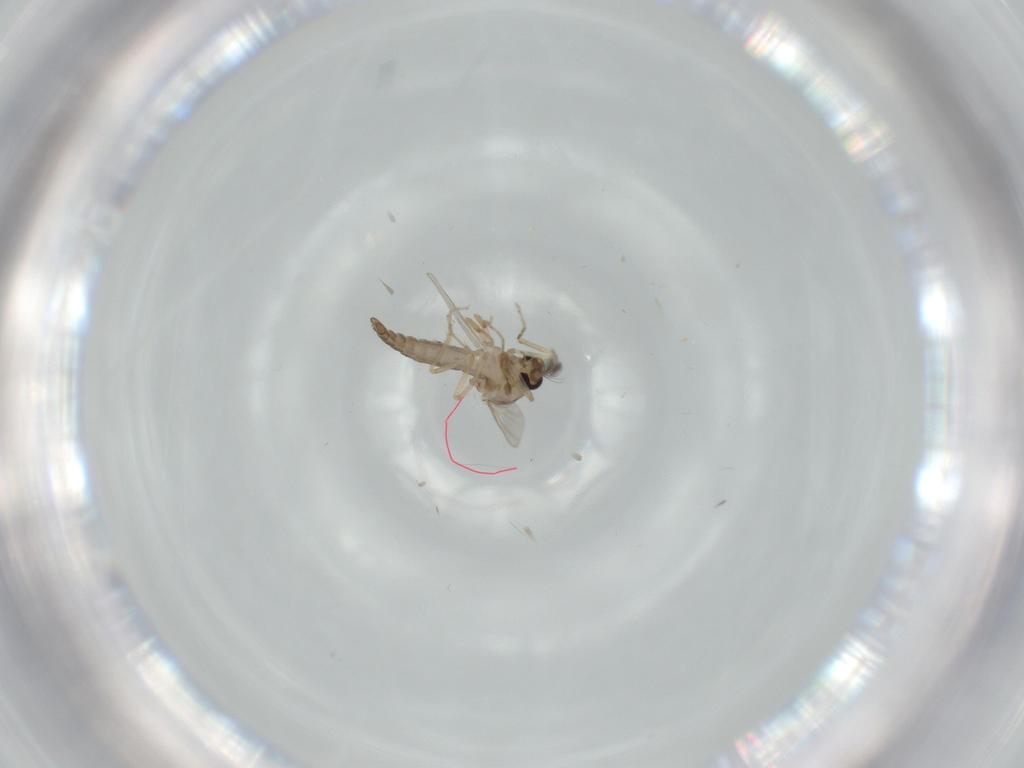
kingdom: Animalia
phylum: Arthropoda
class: Insecta
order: Diptera
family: Ceratopogonidae
